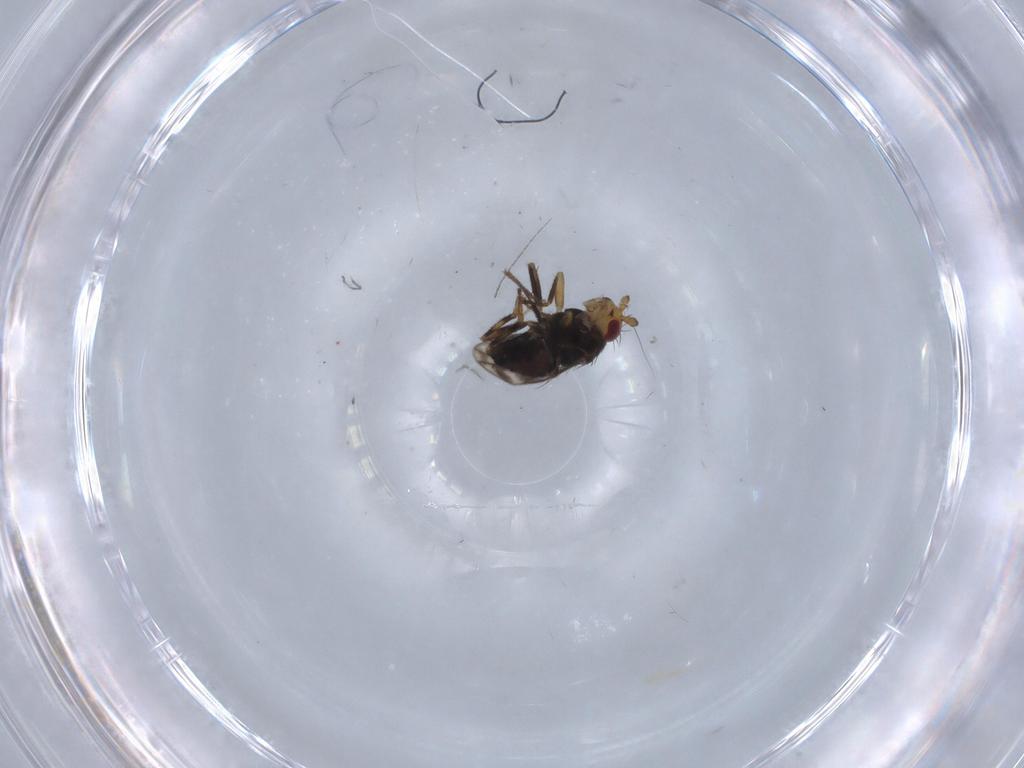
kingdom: Animalia
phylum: Arthropoda
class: Insecta
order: Diptera
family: Sphaeroceridae
